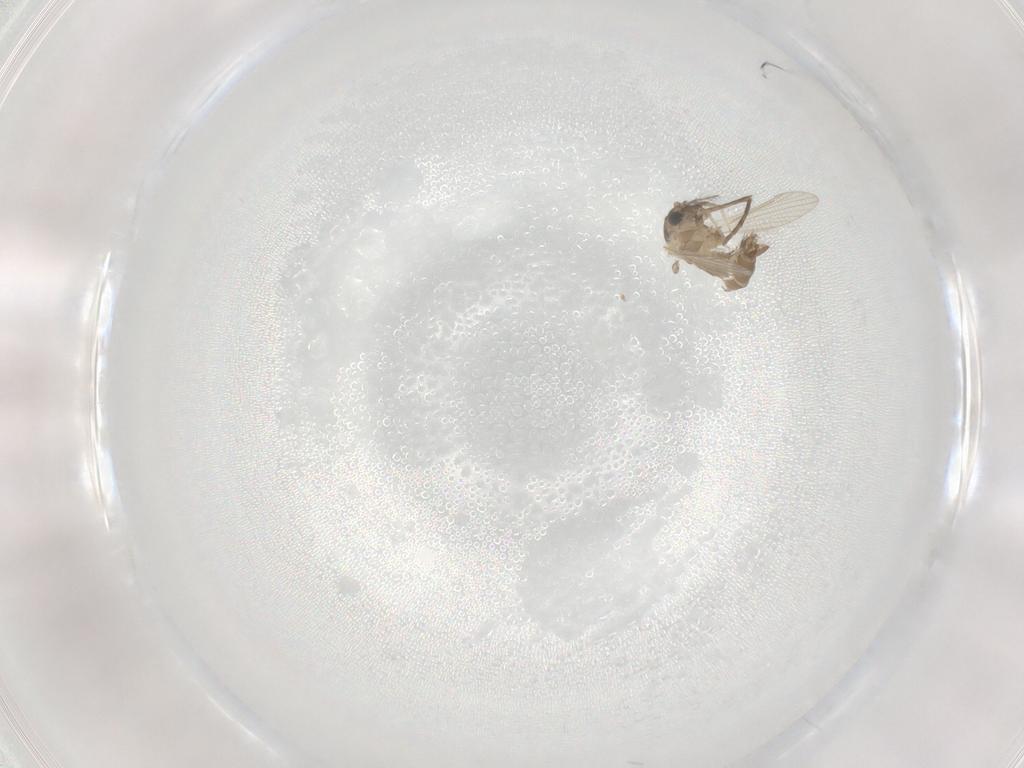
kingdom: Animalia
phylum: Arthropoda
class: Insecta
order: Diptera
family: Psychodidae
